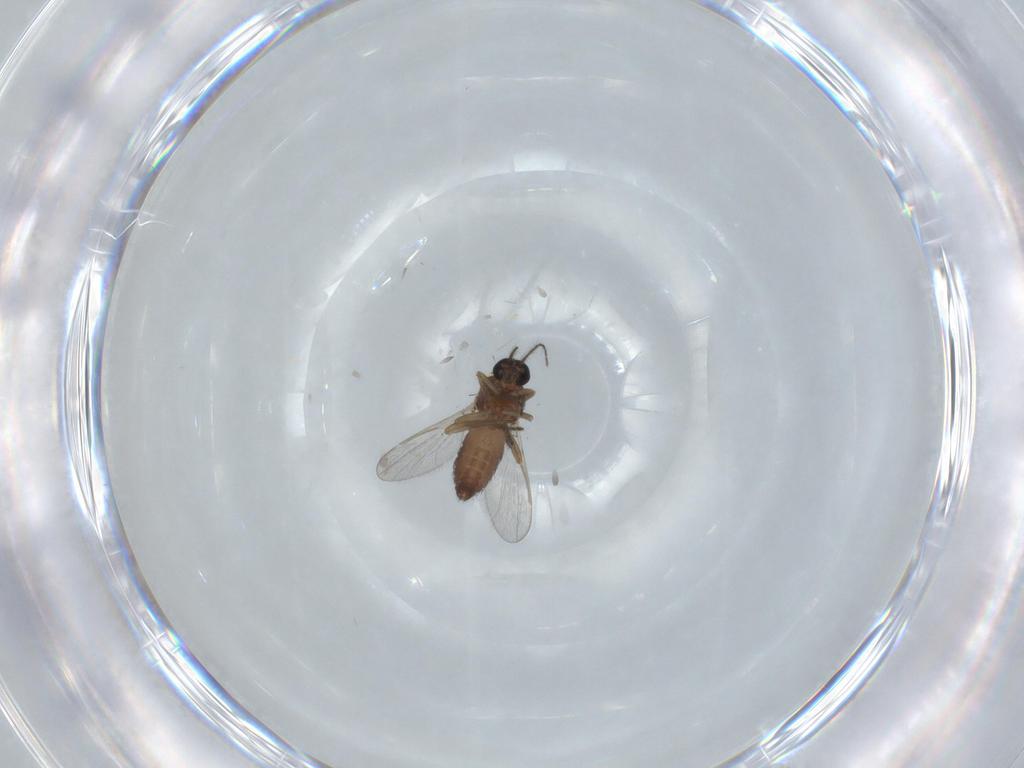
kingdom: Animalia
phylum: Arthropoda
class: Insecta
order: Diptera
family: Ceratopogonidae
